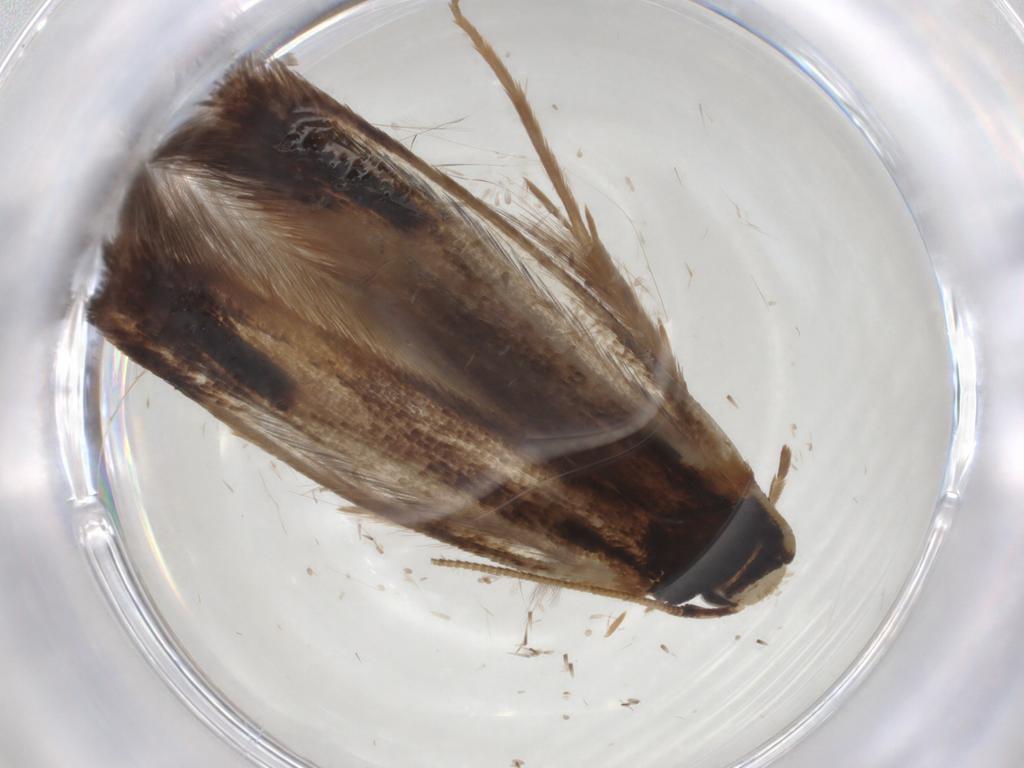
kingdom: Animalia
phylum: Arthropoda
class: Insecta
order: Lepidoptera
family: Tineidae
